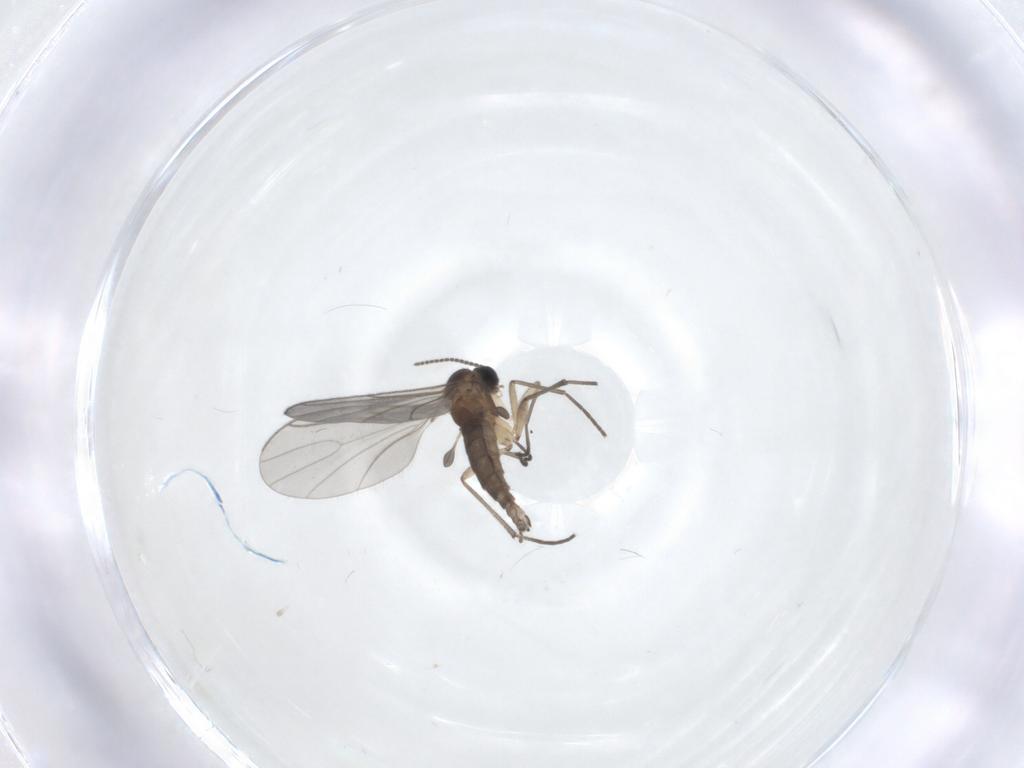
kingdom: Animalia
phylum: Arthropoda
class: Insecta
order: Diptera
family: Sciaridae
